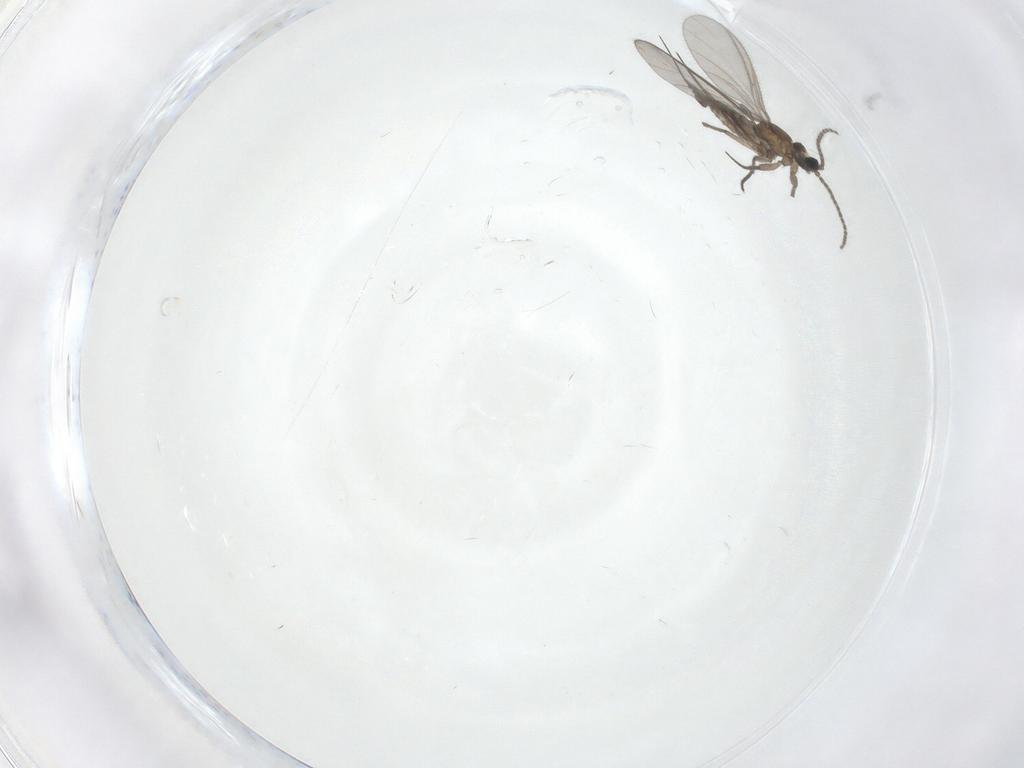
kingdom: Animalia
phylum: Arthropoda
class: Insecta
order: Diptera
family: Sciaridae
